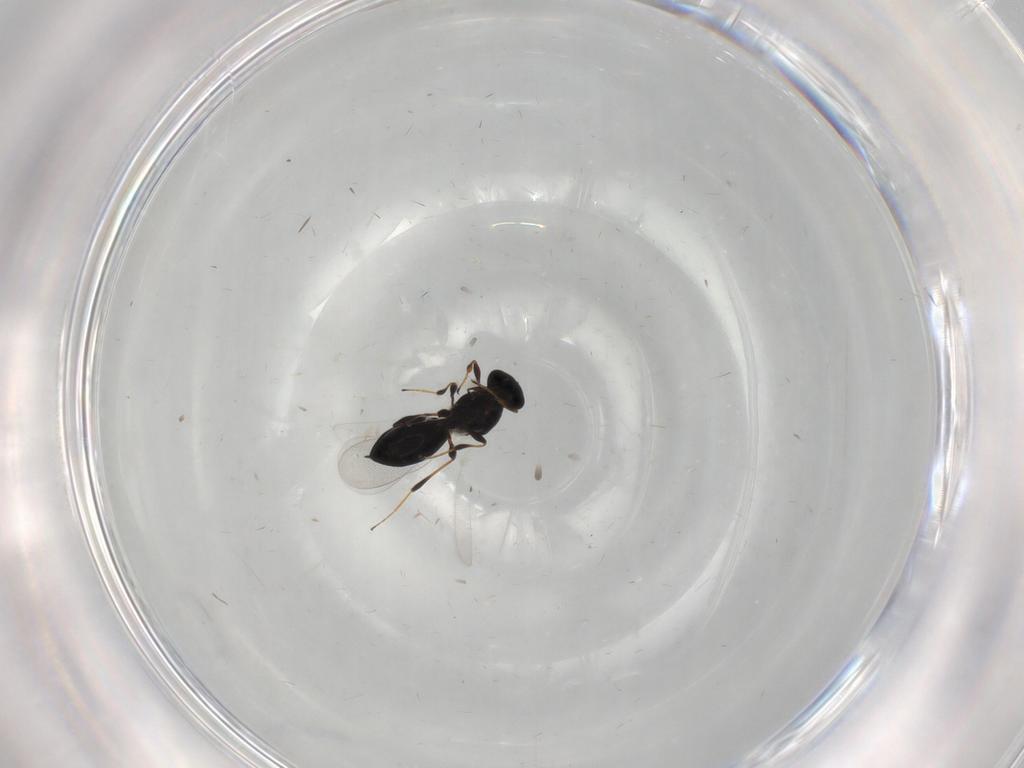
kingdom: Animalia
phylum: Arthropoda
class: Insecta
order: Hymenoptera
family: Platygastridae
